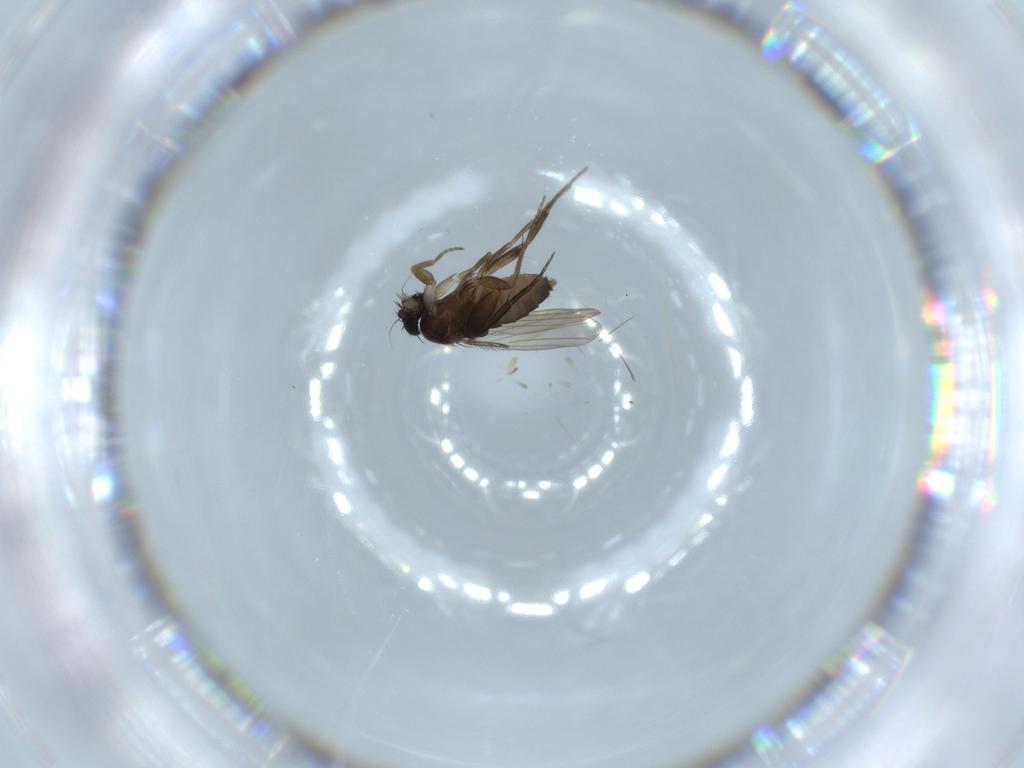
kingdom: Animalia
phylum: Arthropoda
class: Insecta
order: Diptera
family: Phoridae
